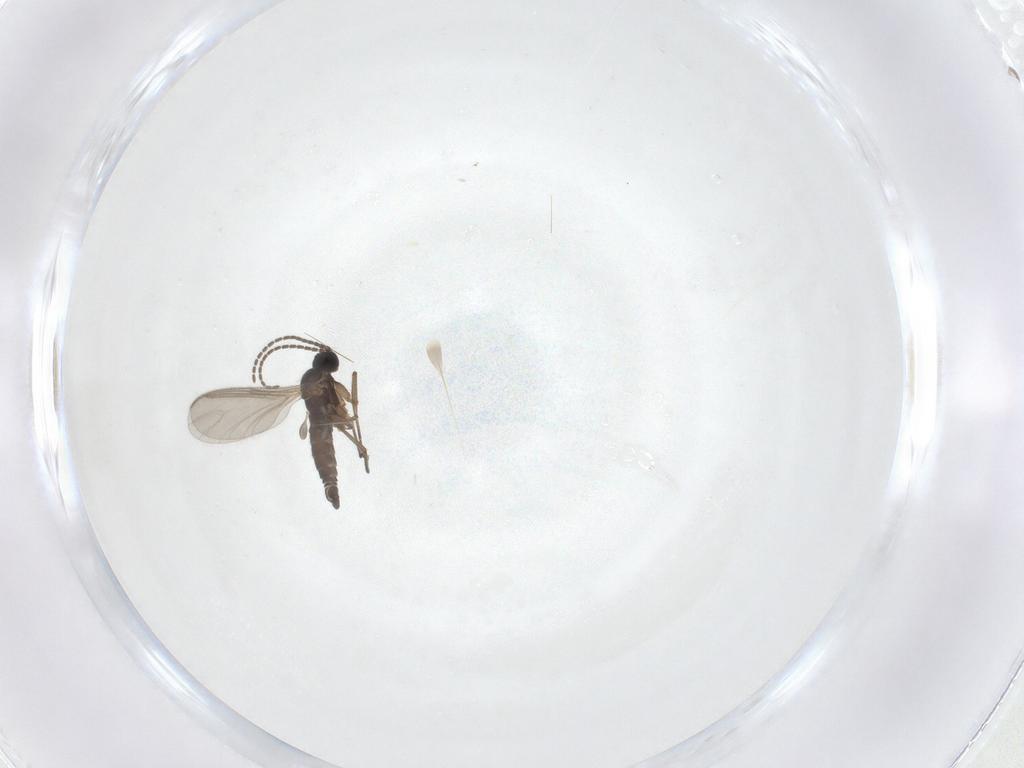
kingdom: Animalia
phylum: Arthropoda
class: Insecta
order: Diptera
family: Sciaridae
